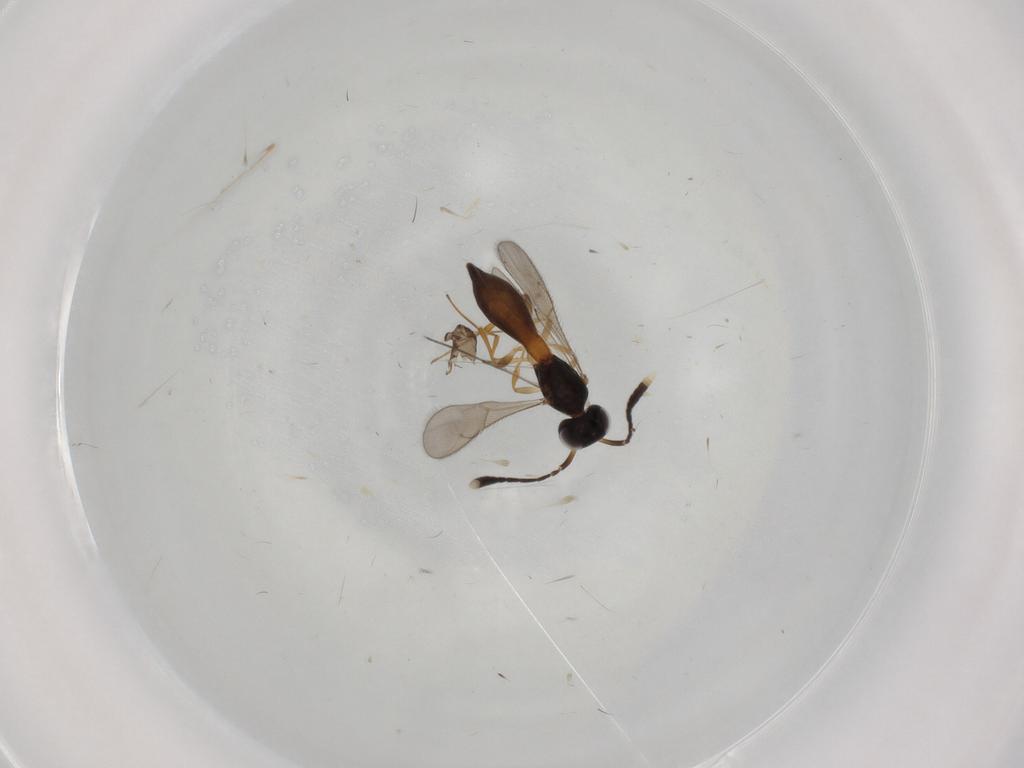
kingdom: Animalia
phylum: Arthropoda
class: Insecta
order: Hymenoptera
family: Scelionidae
